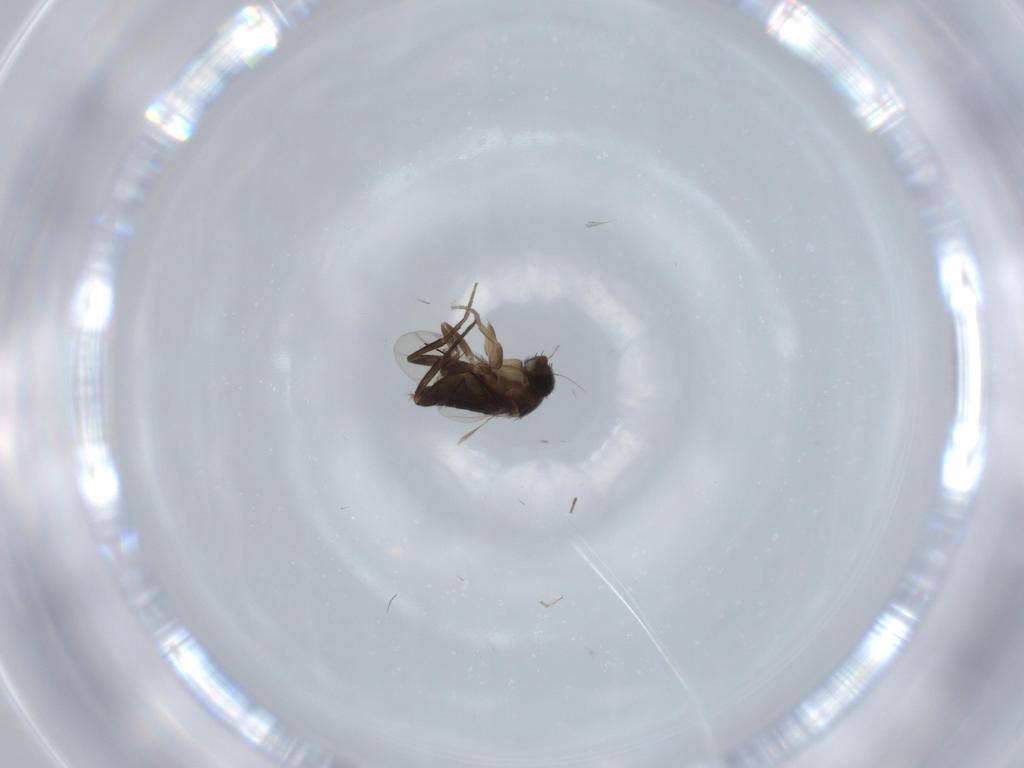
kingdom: Animalia
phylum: Arthropoda
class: Insecta
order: Diptera
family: Phoridae
